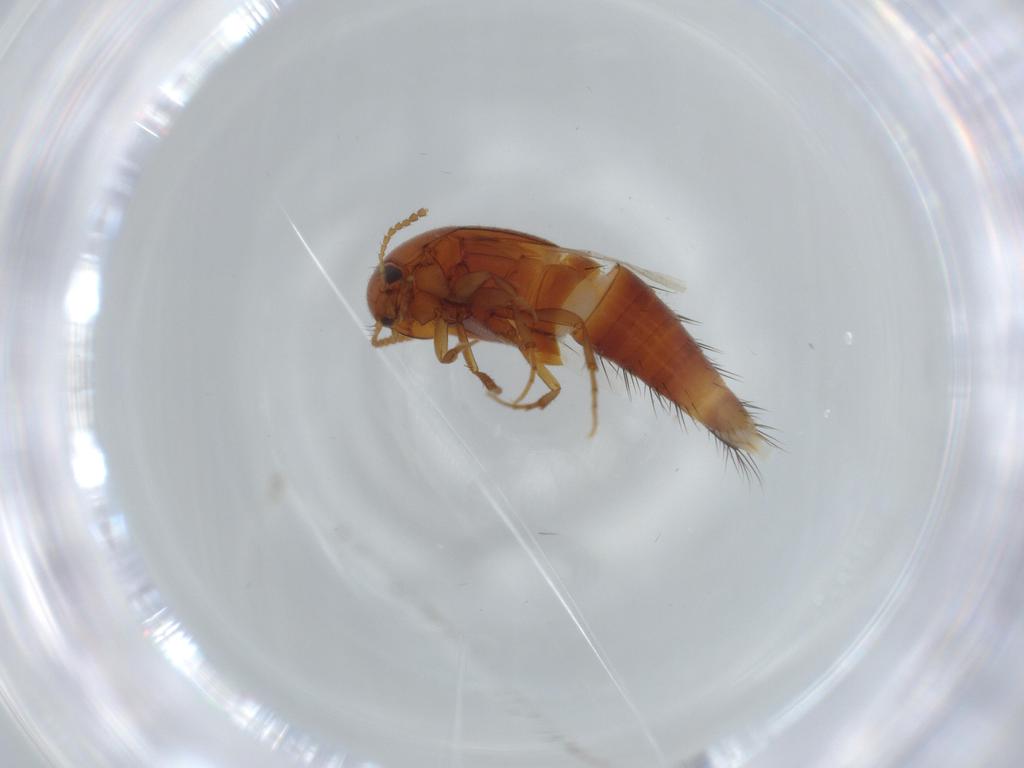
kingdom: Animalia
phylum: Arthropoda
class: Insecta
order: Coleoptera
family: Staphylinidae
